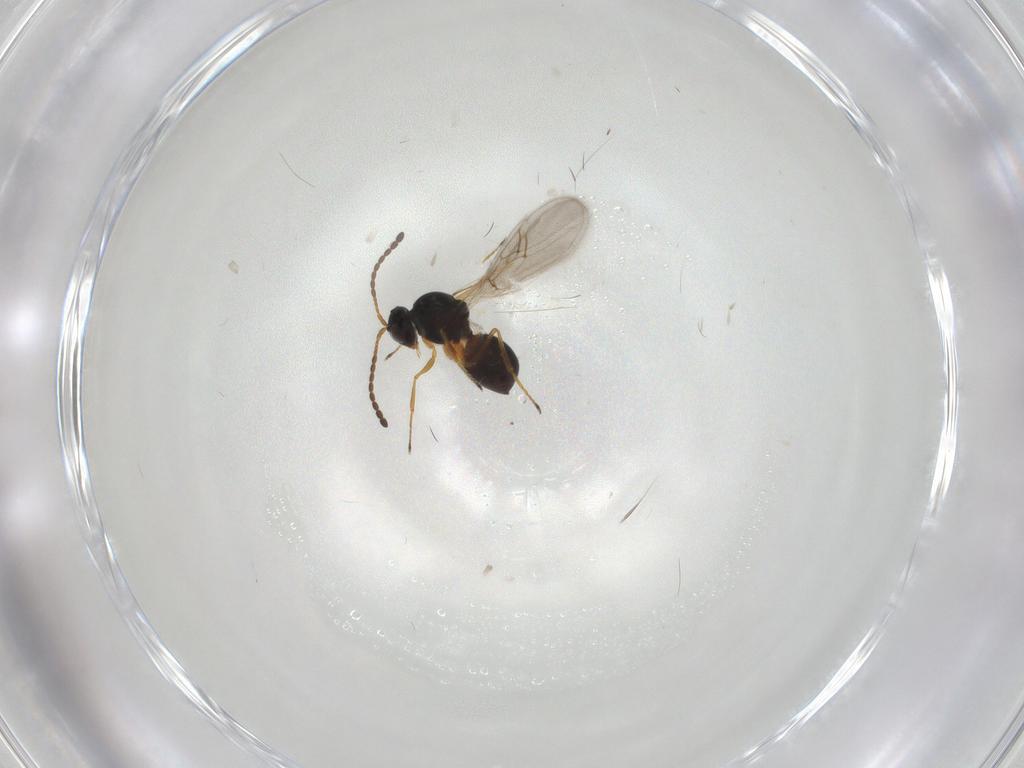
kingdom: Animalia
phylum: Arthropoda
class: Insecta
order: Hymenoptera
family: Figitidae
